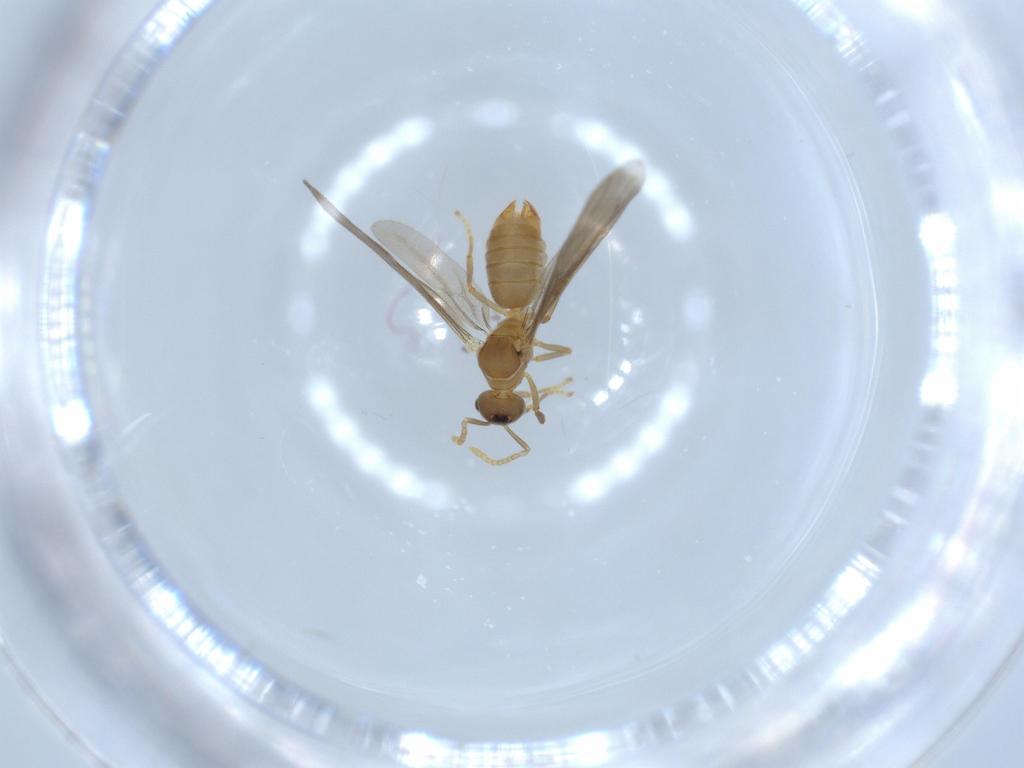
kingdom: Animalia
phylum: Arthropoda
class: Insecta
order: Hymenoptera
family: Formicidae
